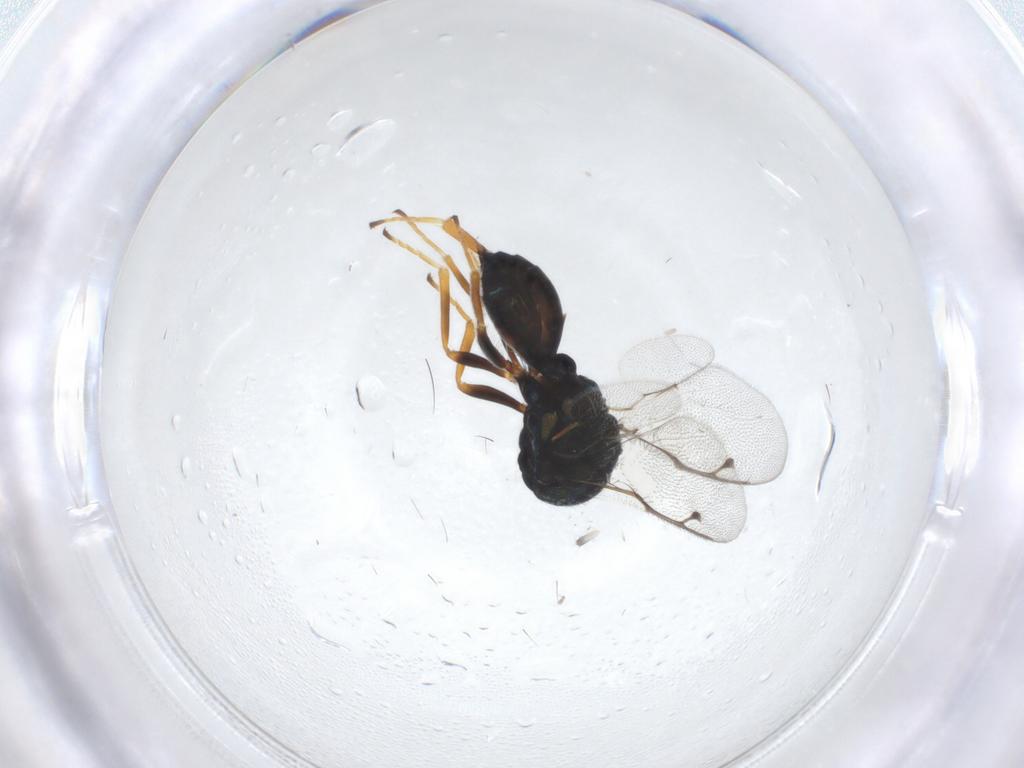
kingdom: Animalia
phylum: Arthropoda
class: Insecta
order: Hymenoptera
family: Pteromalidae
